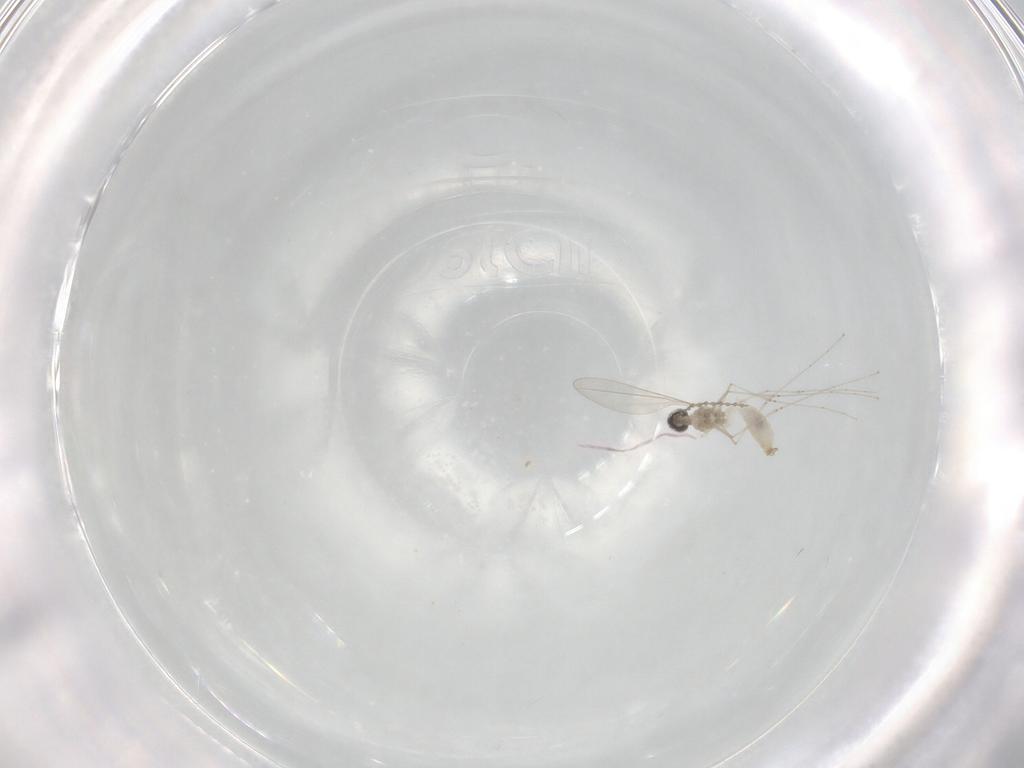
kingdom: Animalia
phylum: Arthropoda
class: Insecta
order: Diptera
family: Cecidomyiidae
